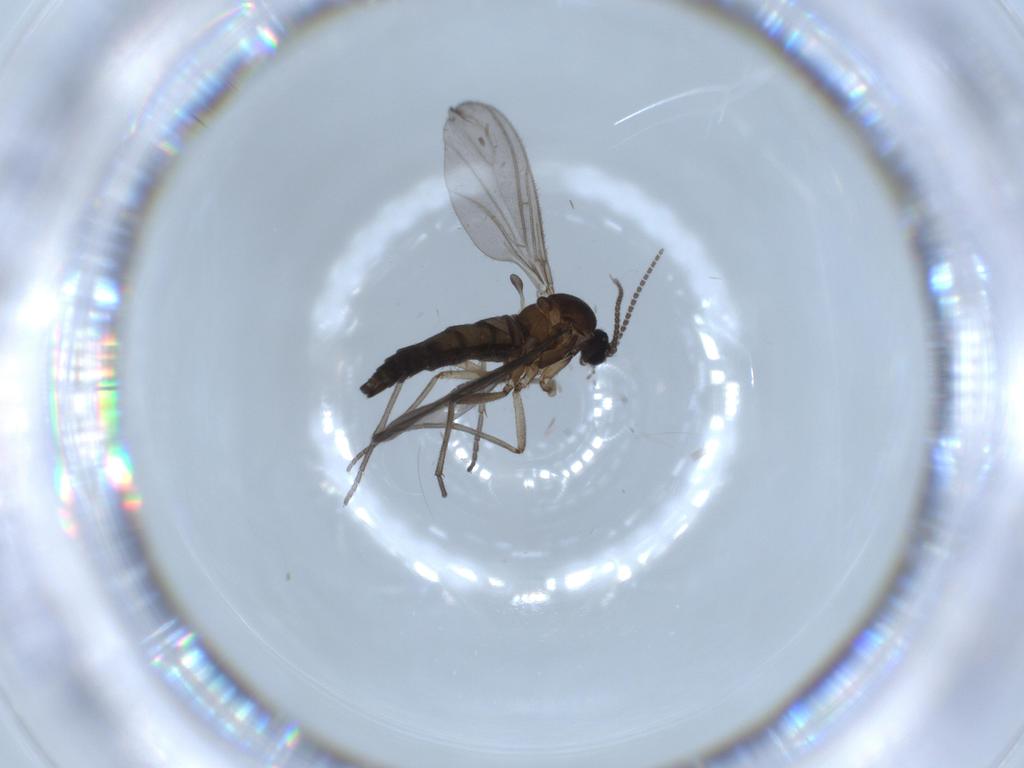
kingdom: Animalia
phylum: Arthropoda
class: Insecta
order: Diptera
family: Sciaridae
